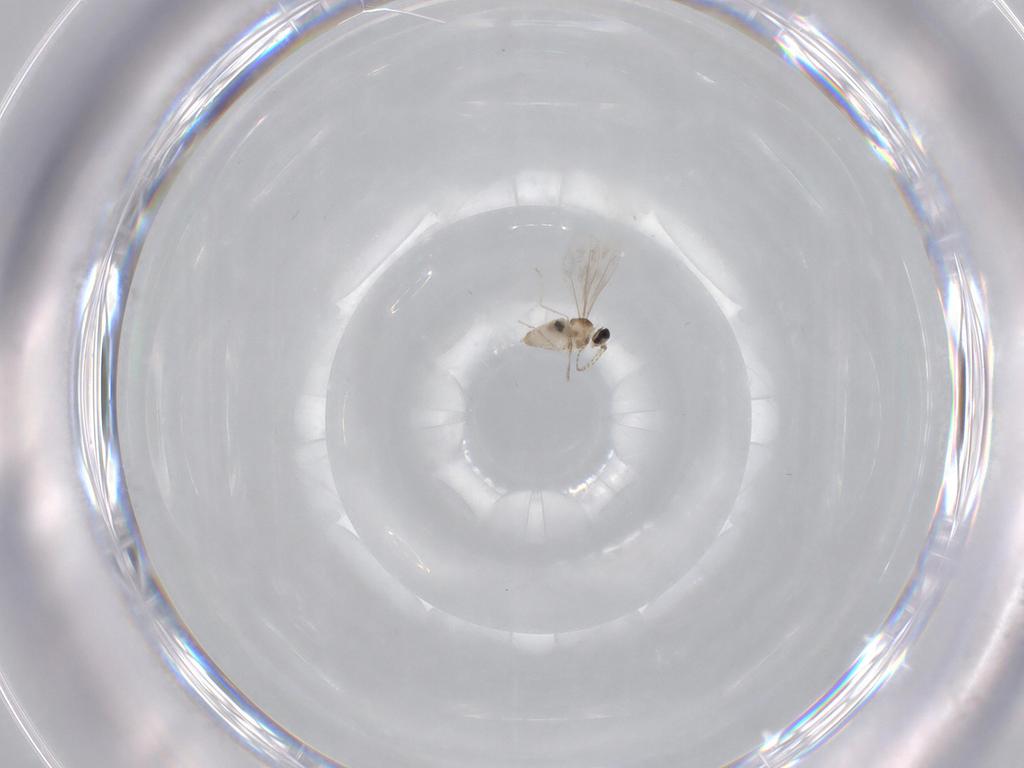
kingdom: Animalia
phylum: Arthropoda
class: Insecta
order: Diptera
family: Cecidomyiidae
